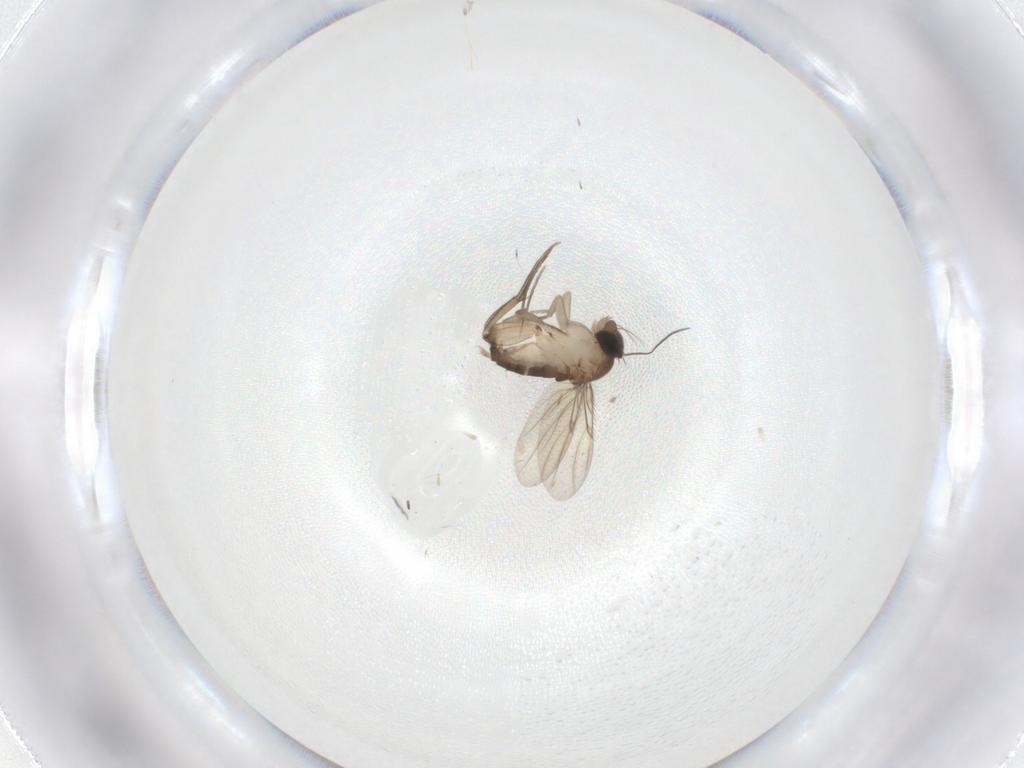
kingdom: Animalia
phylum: Arthropoda
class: Insecta
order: Diptera
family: Phoridae
